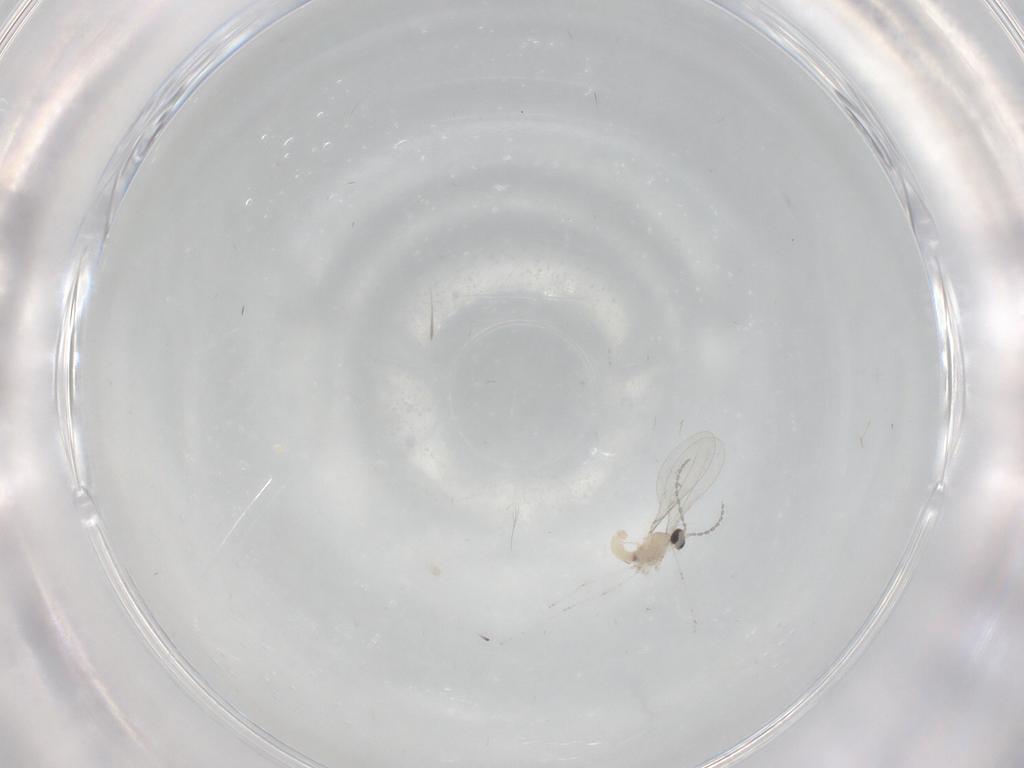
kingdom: Animalia
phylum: Arthropoda
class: Insecta
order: Diptera
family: Cecidomyiidae
